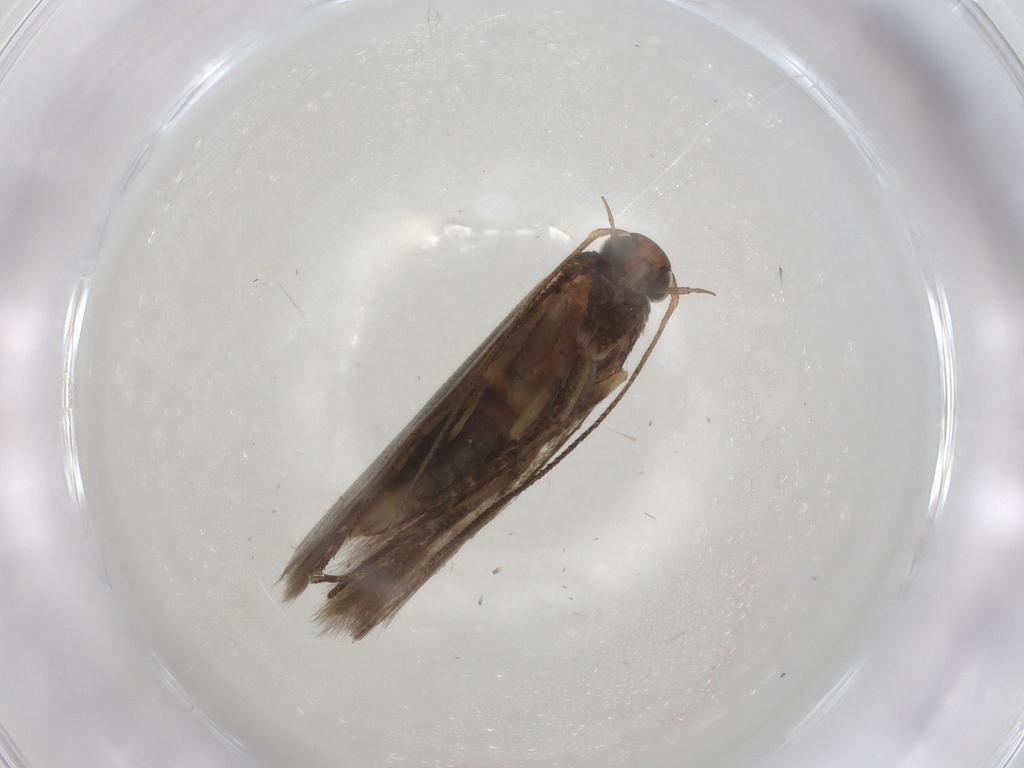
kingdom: Animalia
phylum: Arthropoda
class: Insecta
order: Lepidoptera
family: Gelechiidae
